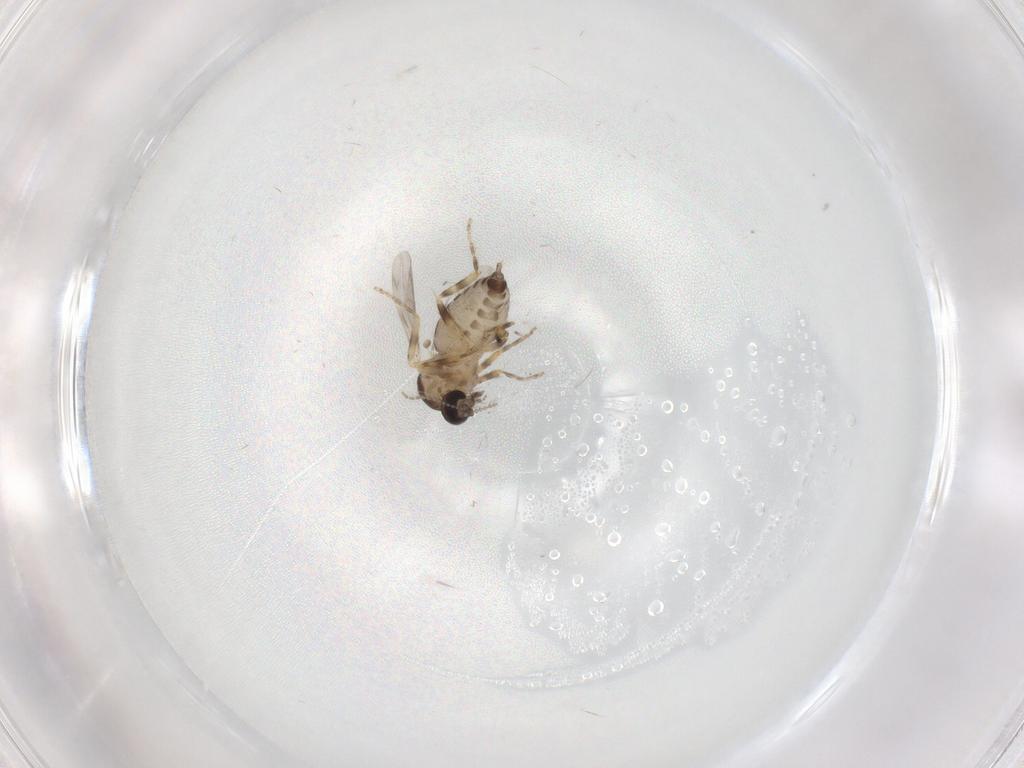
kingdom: Animalia
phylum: Arthropoda
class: Insecta
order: Diptera
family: Ceratopogonidae
